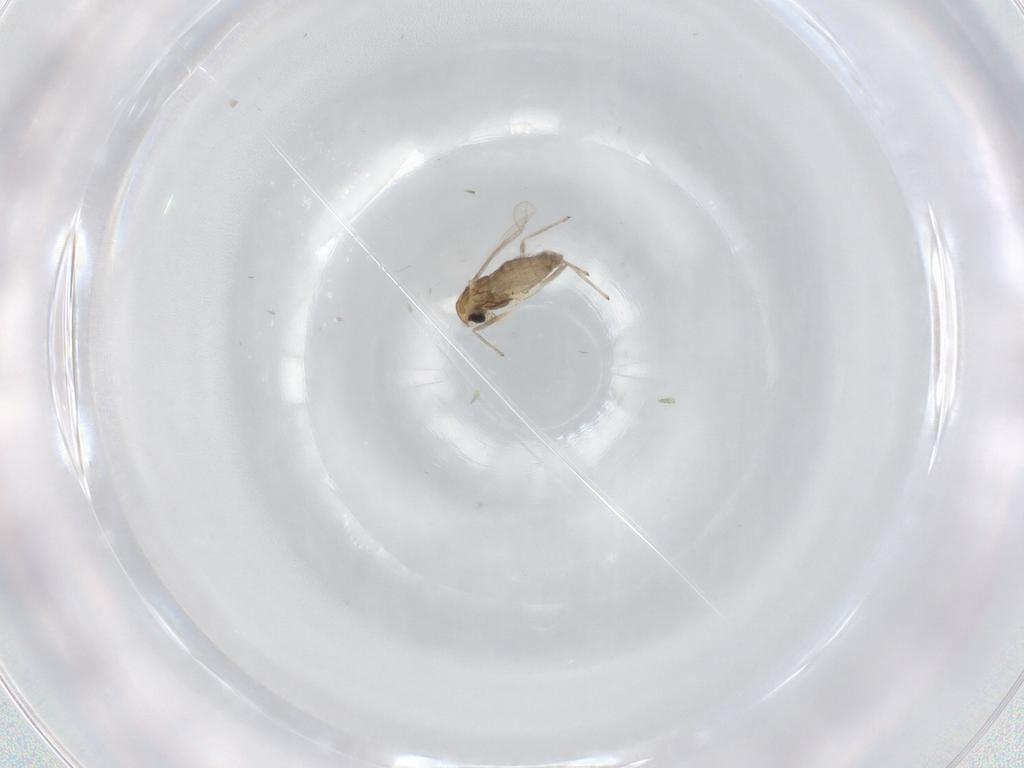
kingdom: Animalia
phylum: Arthropoda
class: Insecta
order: Diptera
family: Chironomidae
